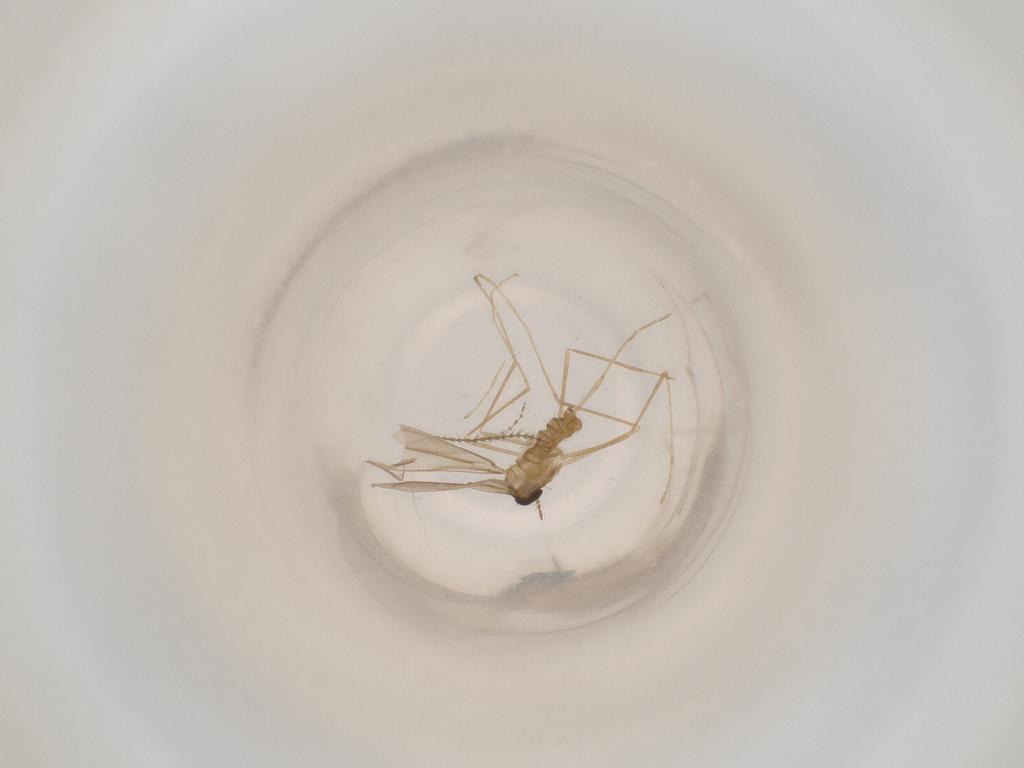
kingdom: Animalia
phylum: Arthropoda
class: Insecta
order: Diptera
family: Cecidomyiidae
